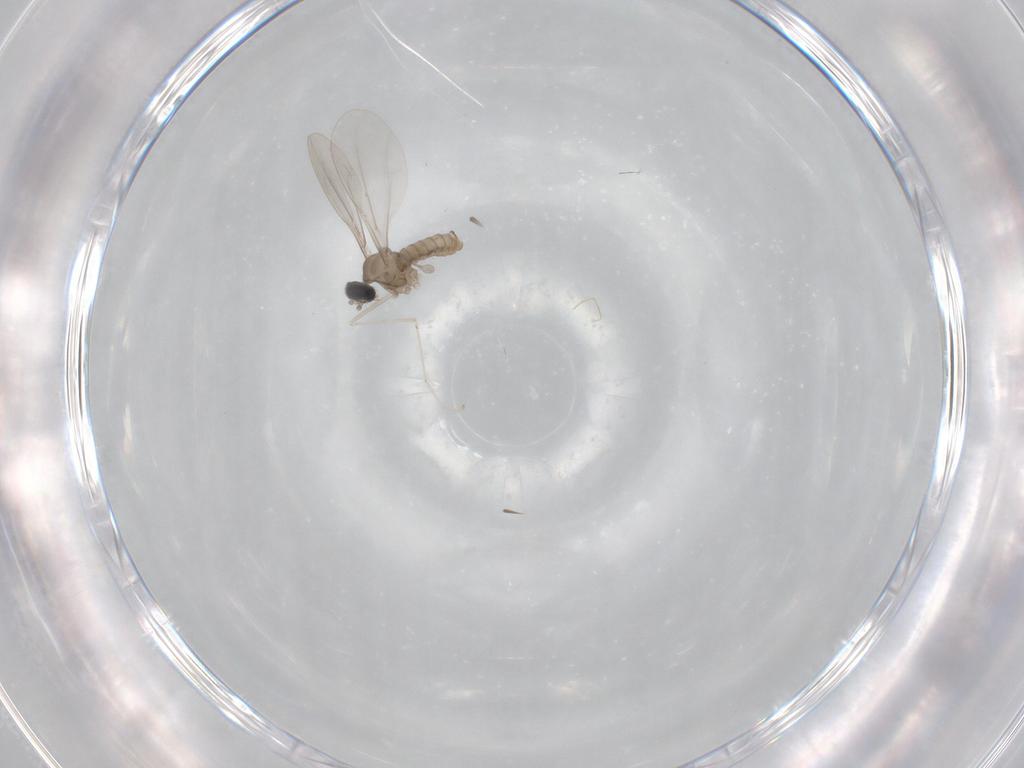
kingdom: Animalia
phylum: Arthropoda
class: Insecta
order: Diptera
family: Cecidomyiidae
